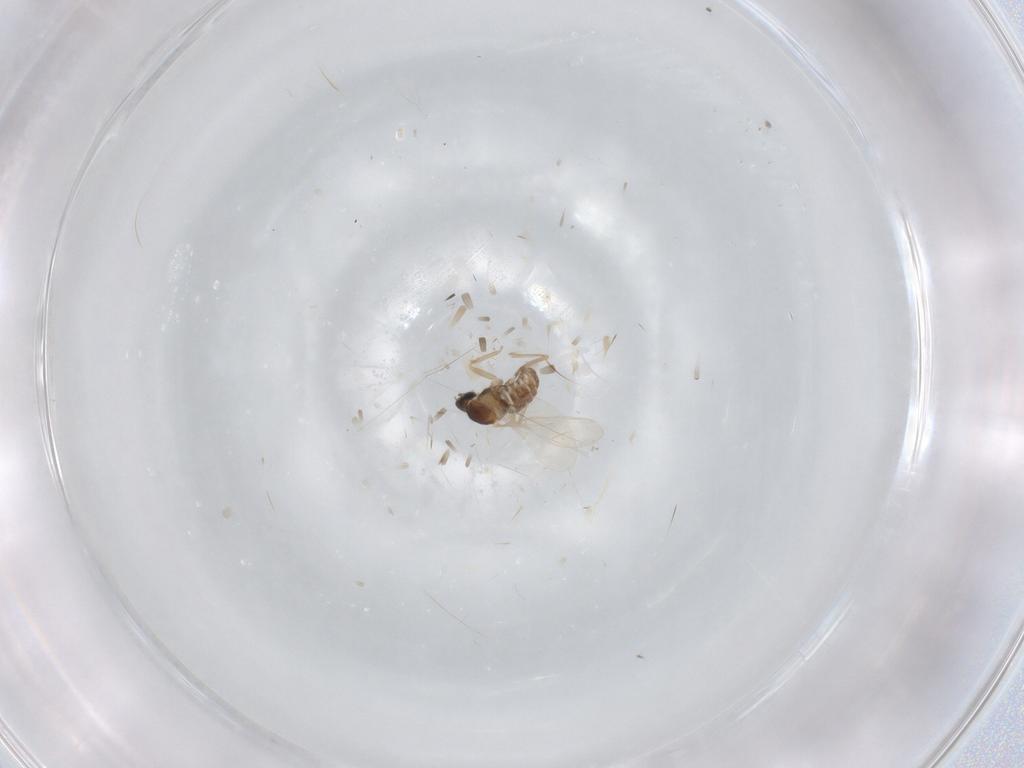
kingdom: Animalia
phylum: Arthropoda
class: Insecta
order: Diptera
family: Cecidomyiidae
